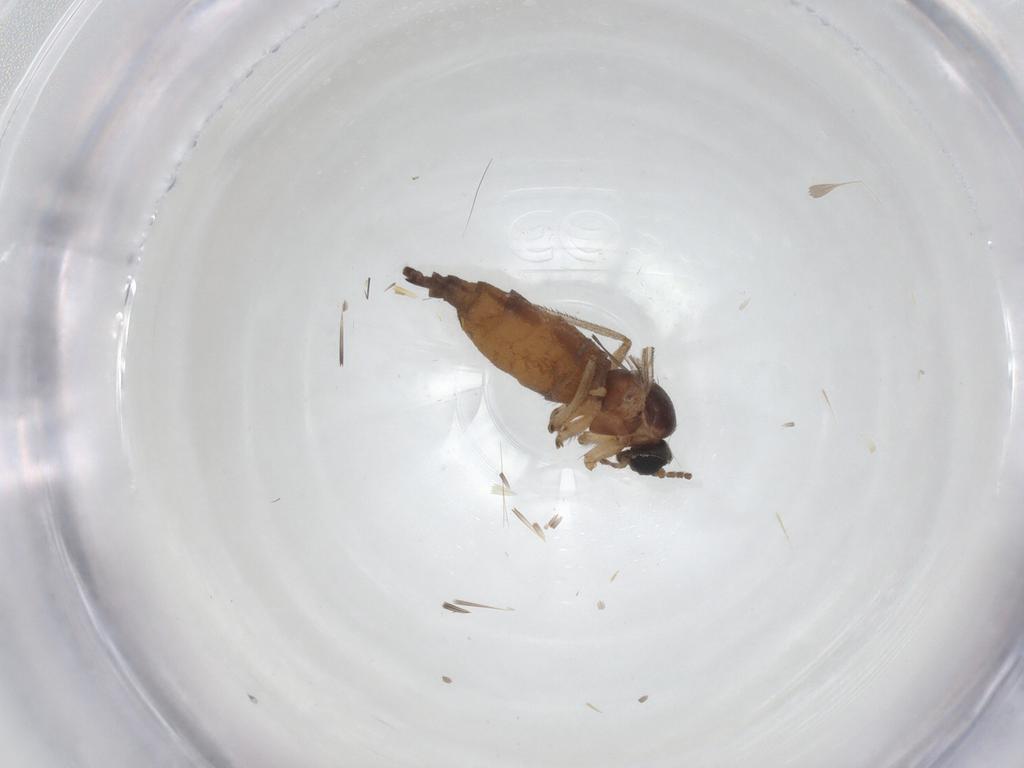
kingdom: Animalia
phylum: Arthropoda
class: Insecta
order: Diptera
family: Sciaridae
